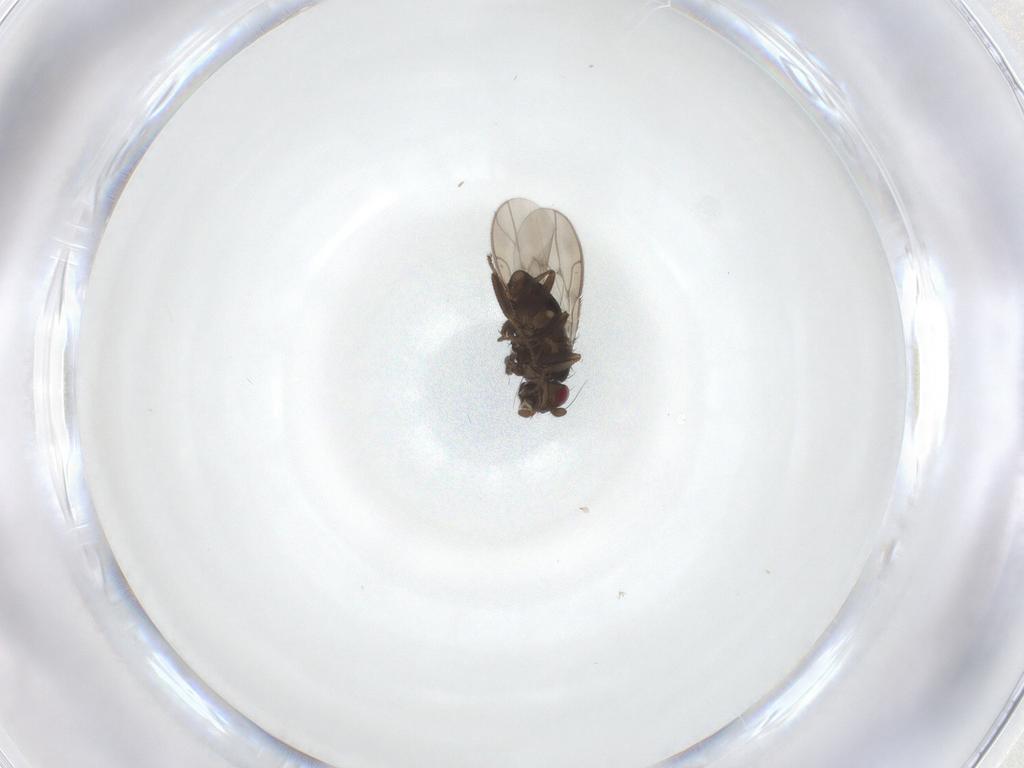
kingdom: Animalia
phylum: Arthropoda
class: Insecta
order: Diptera
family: Sphaeroceridae
